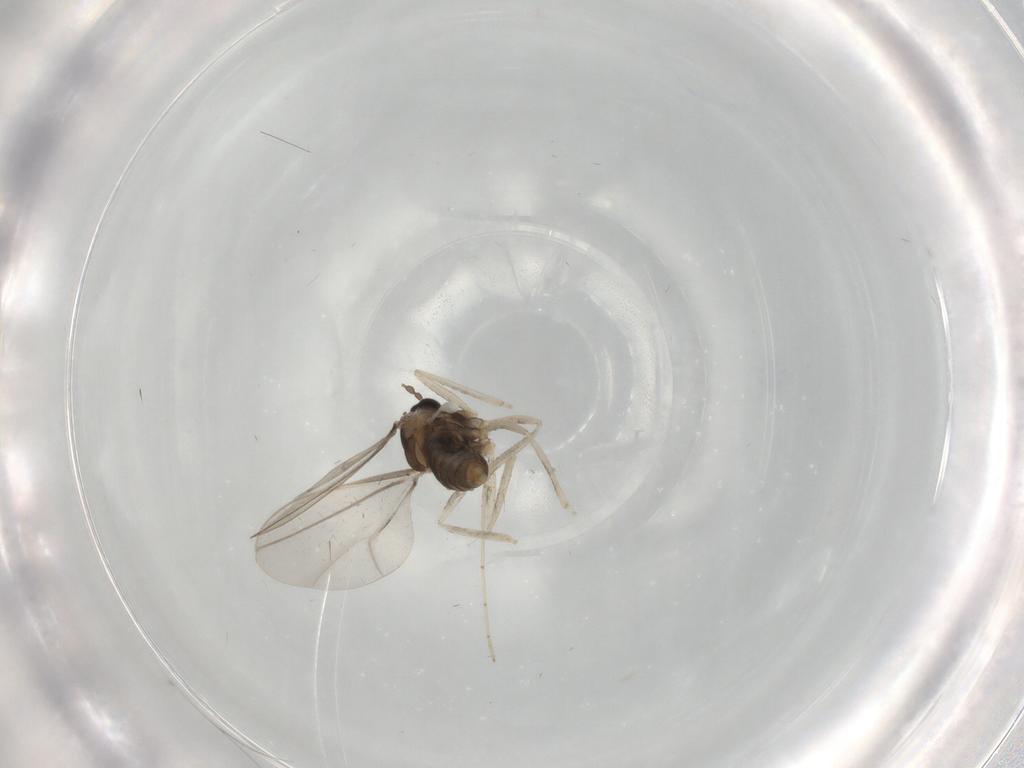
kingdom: Animalia
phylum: Arthropoda
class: Insecta
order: Diptera
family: Cecidomyiidae
